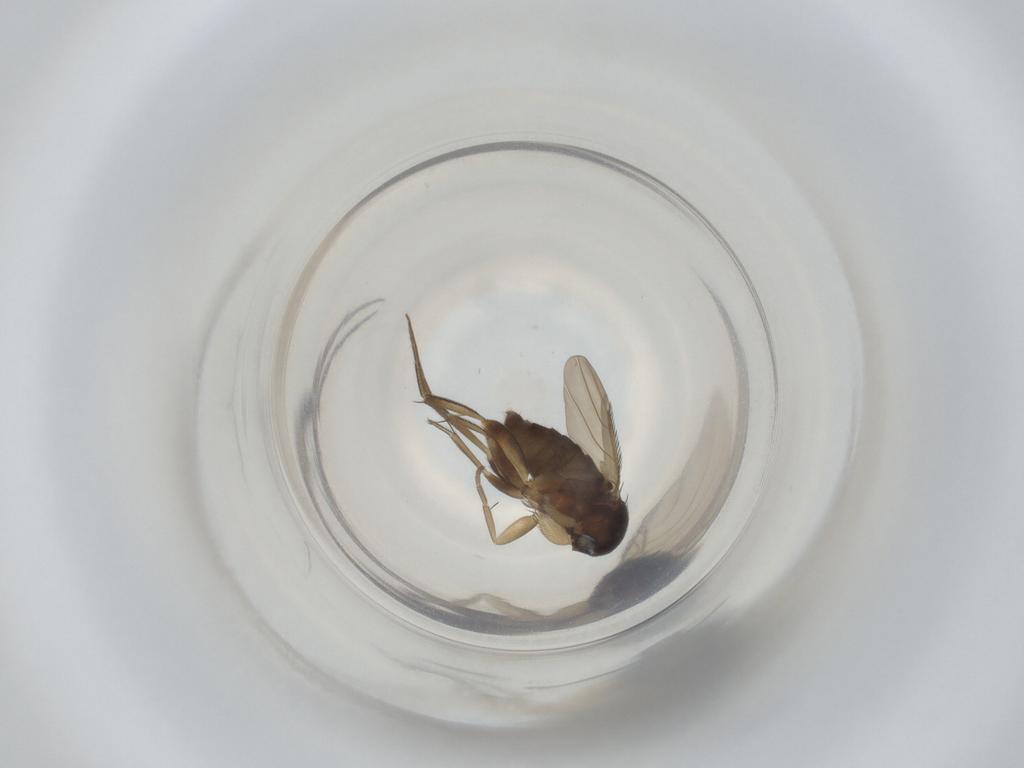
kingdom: Animalia
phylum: Arthropoda
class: Insecta
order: Diptera
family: Phoridae
